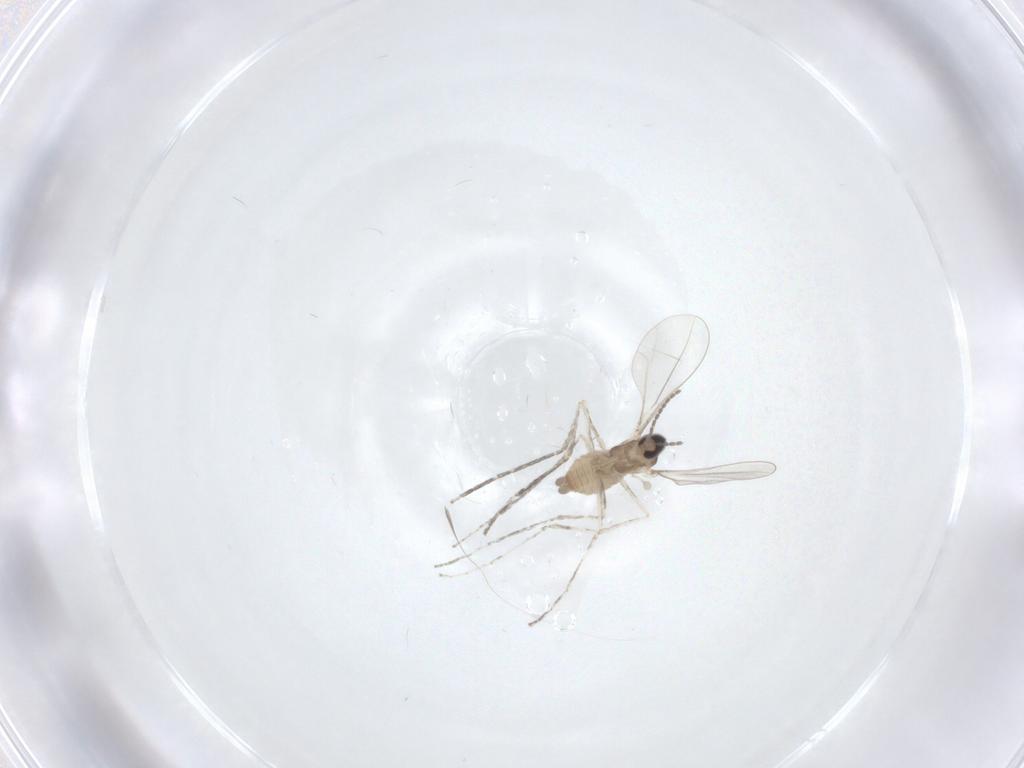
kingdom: Animalia
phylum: Arthropoda
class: Insecta
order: Diptera
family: Cecidomyiidae
